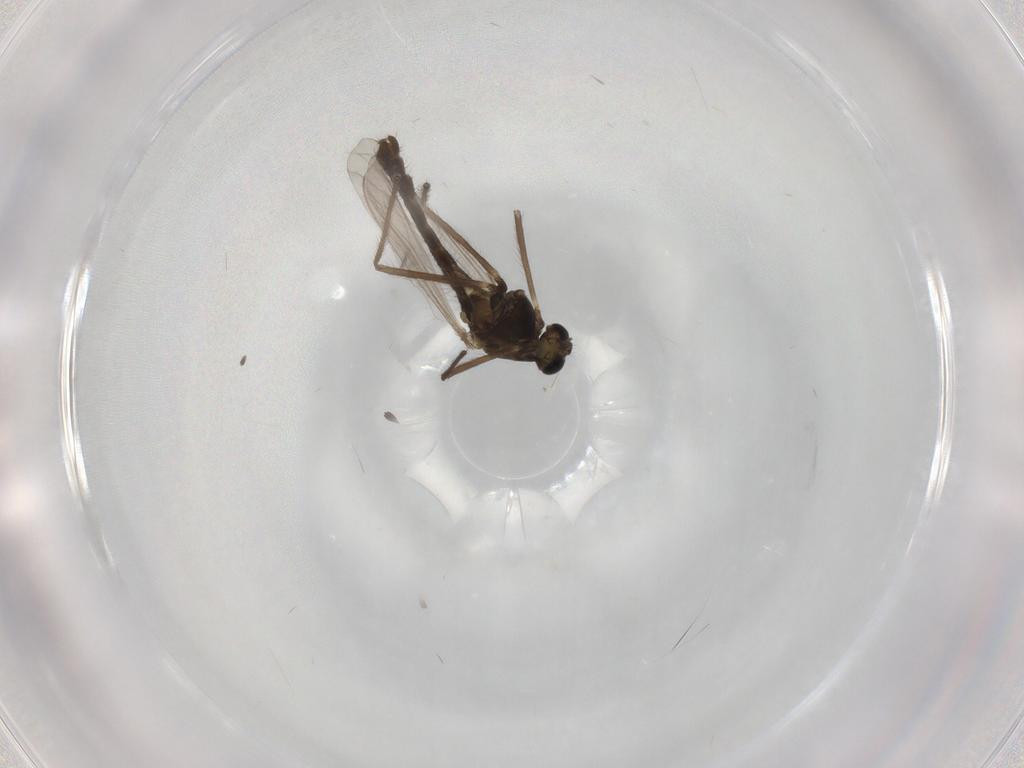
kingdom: Animalia
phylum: Arthropoda
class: Insecta
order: Diptera
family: Chironomidae
